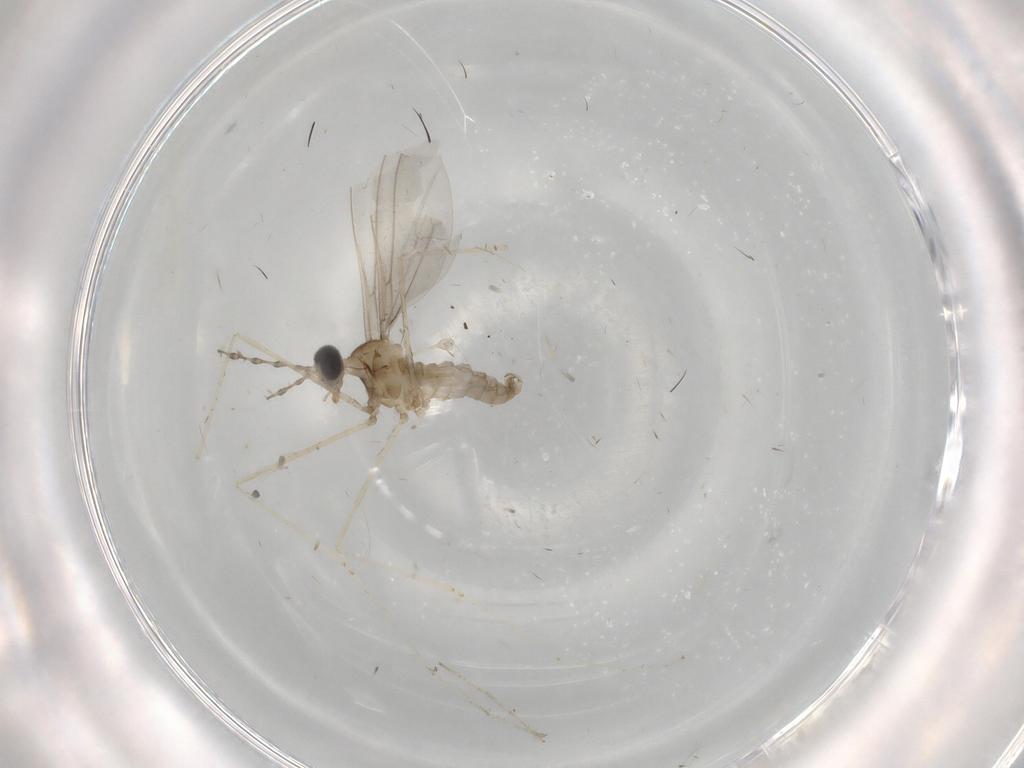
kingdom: Animalia
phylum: Arthropoda
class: Insecta
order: Diptera
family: Cecidomyiidae
